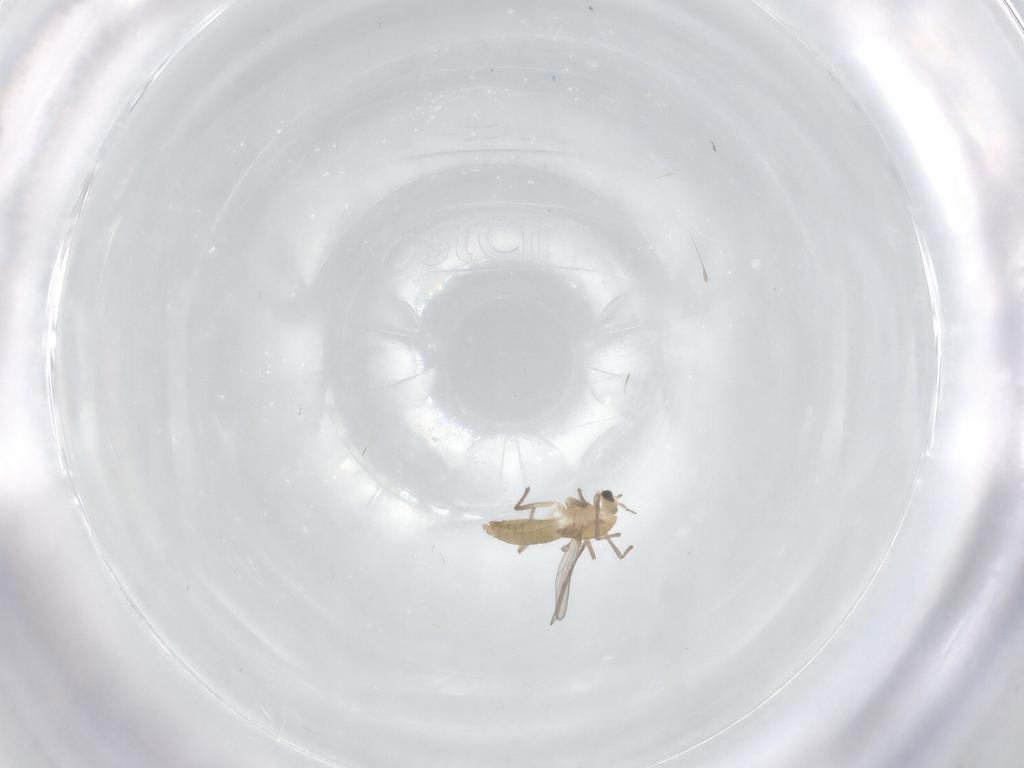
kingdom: Animalia
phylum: Arthropoda
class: Insecta
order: Diptera
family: Chironomidae
